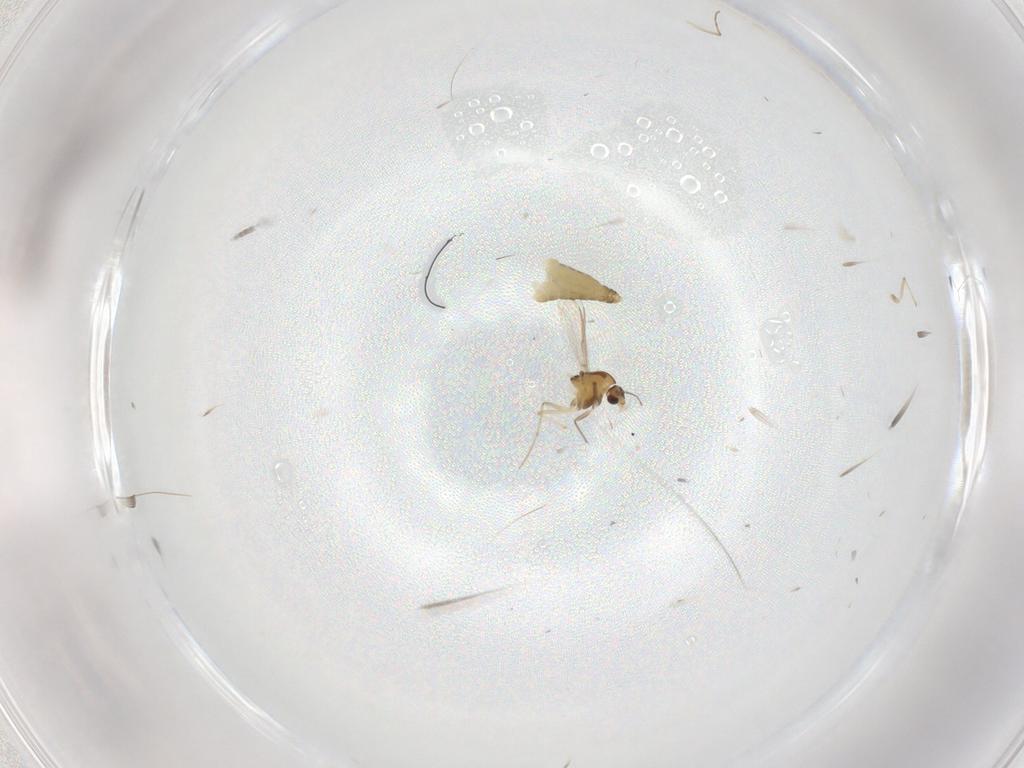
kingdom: Animalia
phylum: Arthropoda
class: Insecta
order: Diptera
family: Chironomidae
